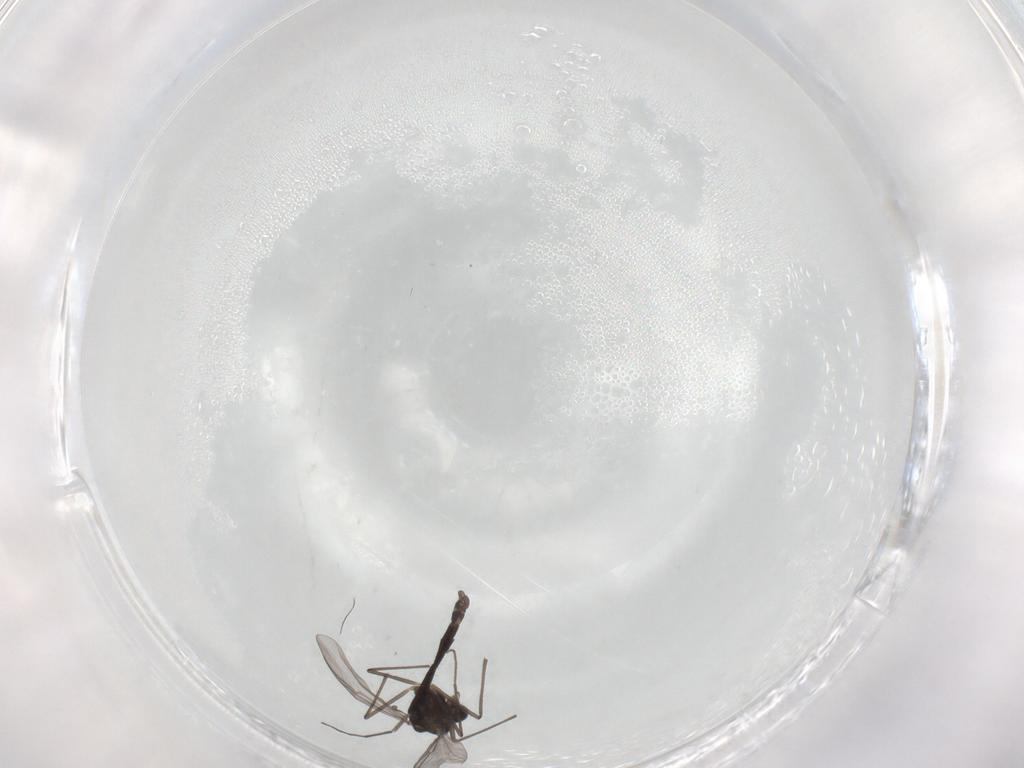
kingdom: Animalia
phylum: Arthropoda
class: Insecta
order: Diptera
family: Chironomidae
